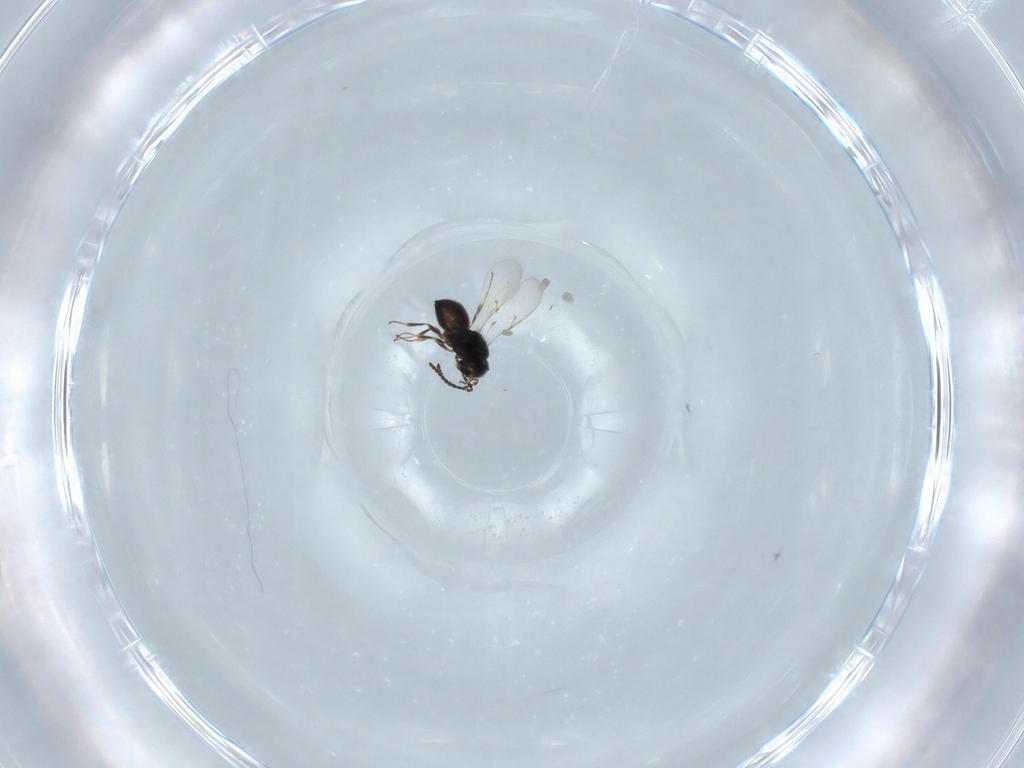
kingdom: Animalia
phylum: Arthropoda
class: Insecta
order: Hymenoptera
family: Scelionidae
